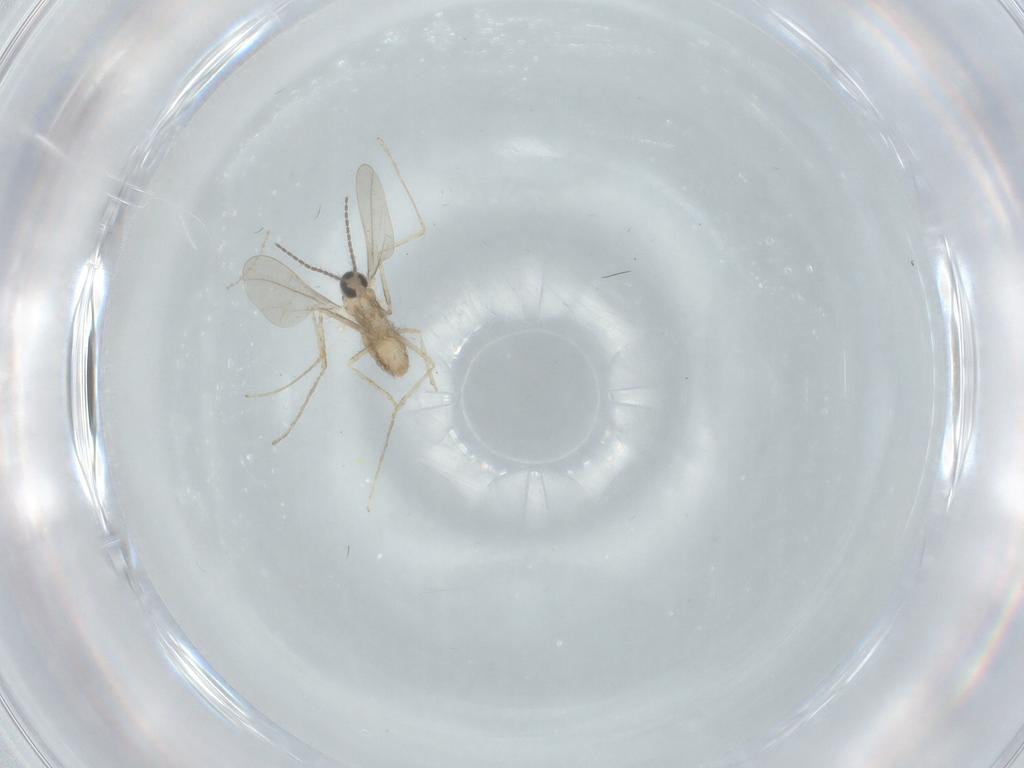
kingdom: Animalia
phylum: Arthropoda
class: Insecta
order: Diptera
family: Cecidomyiidae
